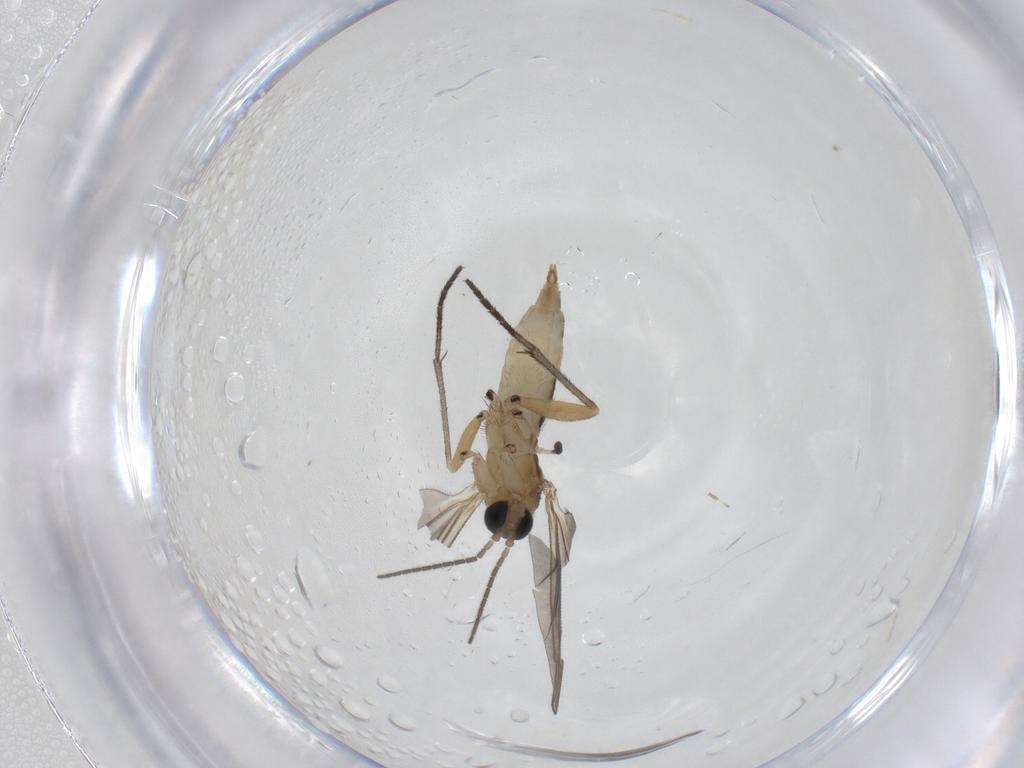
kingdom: Animalia
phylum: Arthropoda
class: Insecta
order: Diptera
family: Sciaridae
